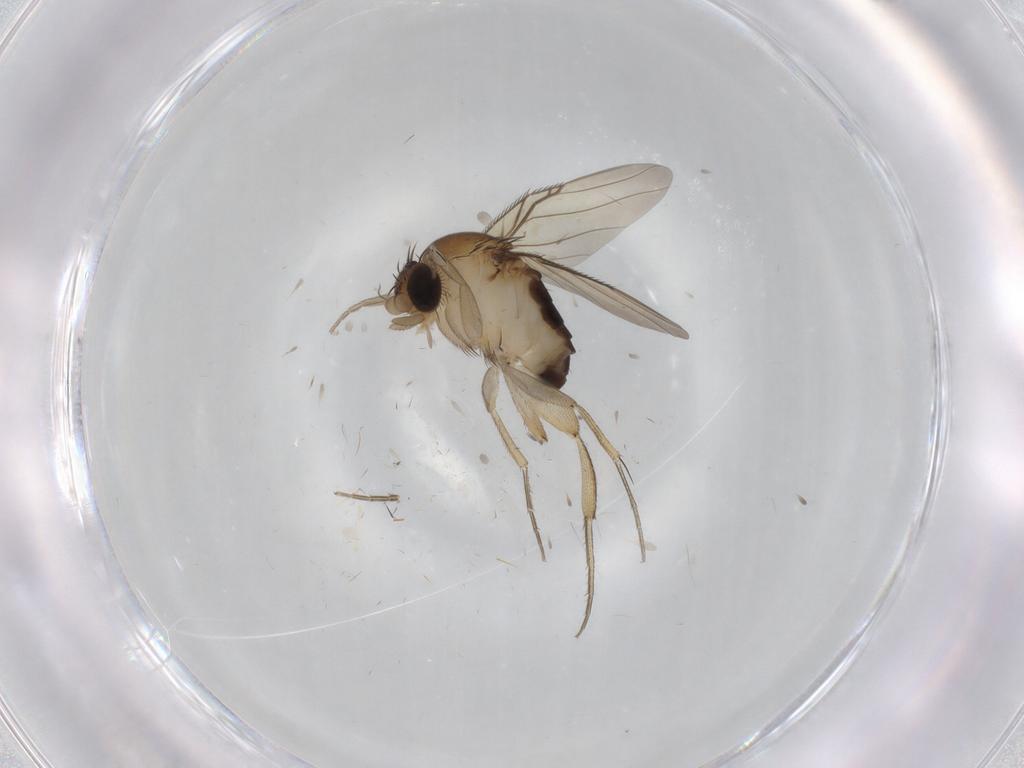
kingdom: Animalia
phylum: Arthropoda
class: Insecta
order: Diptera
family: Phoridae
